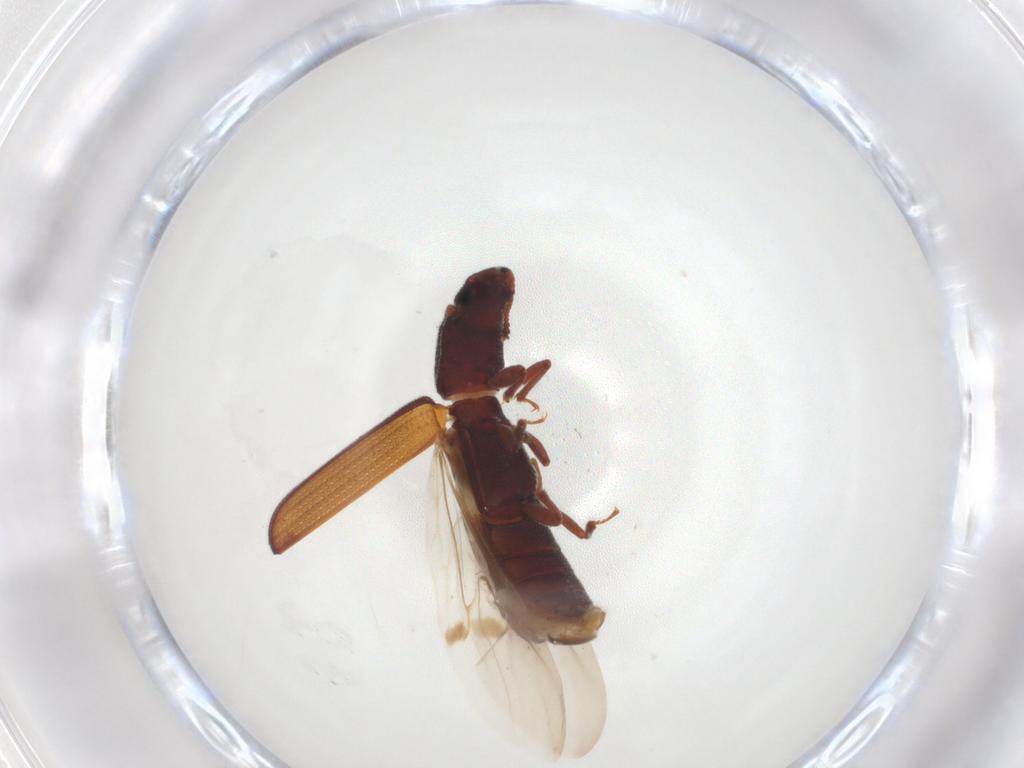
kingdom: Animalia
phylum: Arthropoda
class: Insecta
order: Coleoptera
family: Zopheridae
